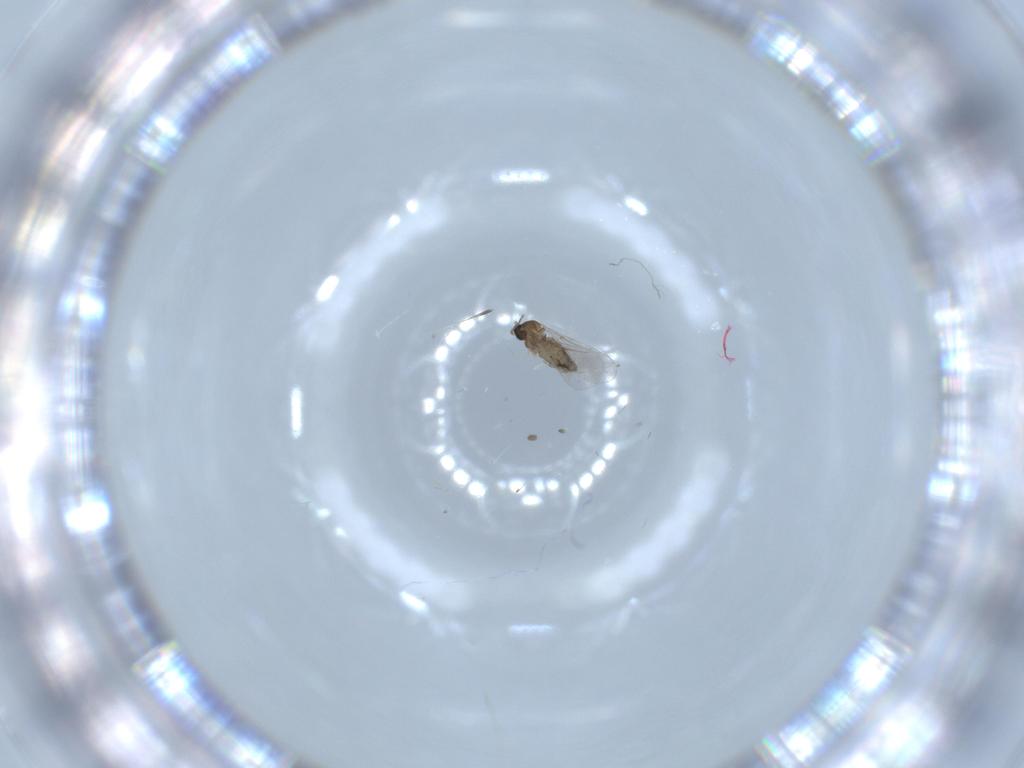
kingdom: Animalia
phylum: Arthropoda
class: Insecta
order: Diptera
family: Cecidomyiidae
